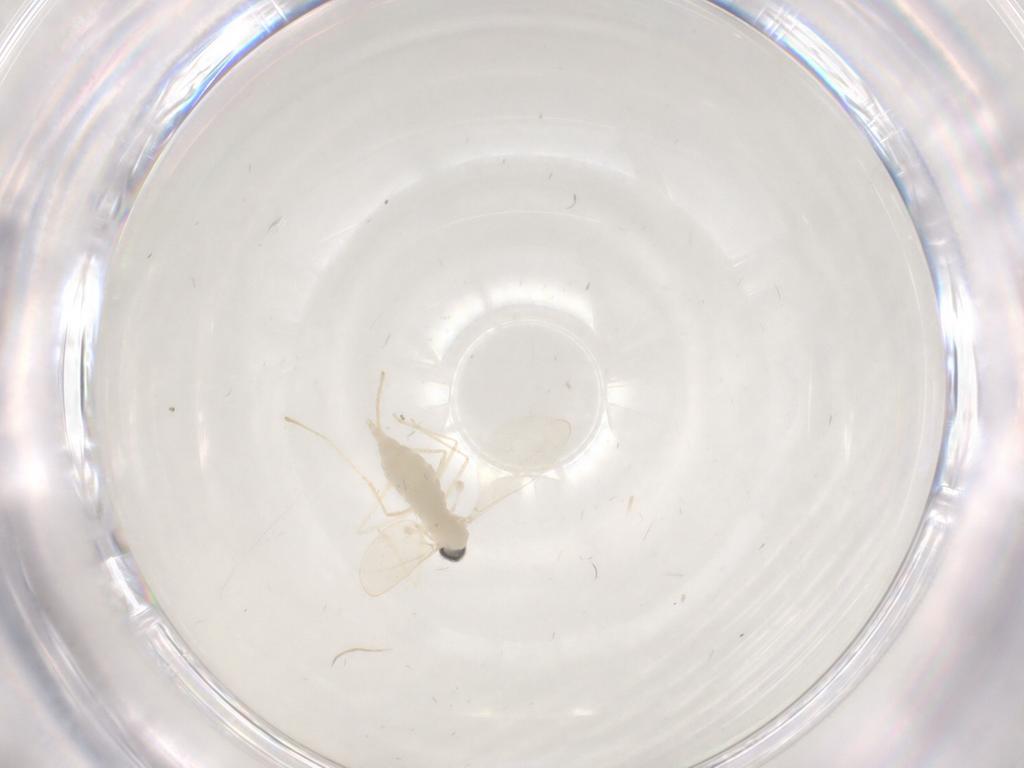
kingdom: Animalia
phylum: Arthropoda
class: Insecta
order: Diptera
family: Cecidomyiidae
